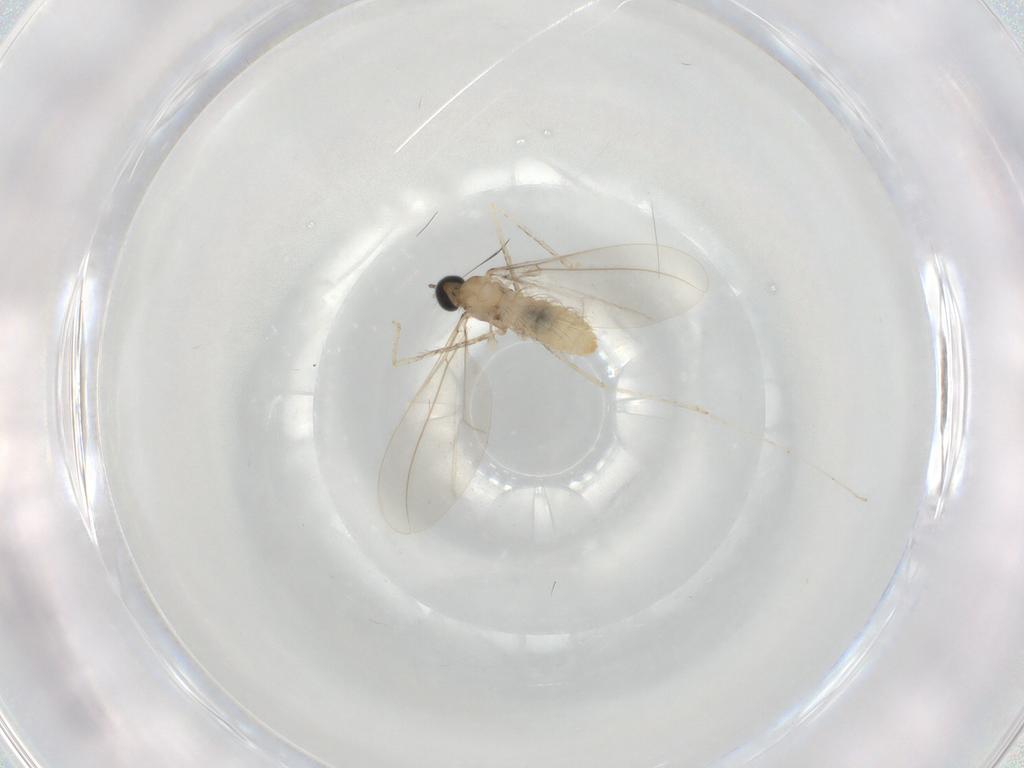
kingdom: Animalia
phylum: Arthropoda
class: Insecta
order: Diptera
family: Cecidomyiidae
